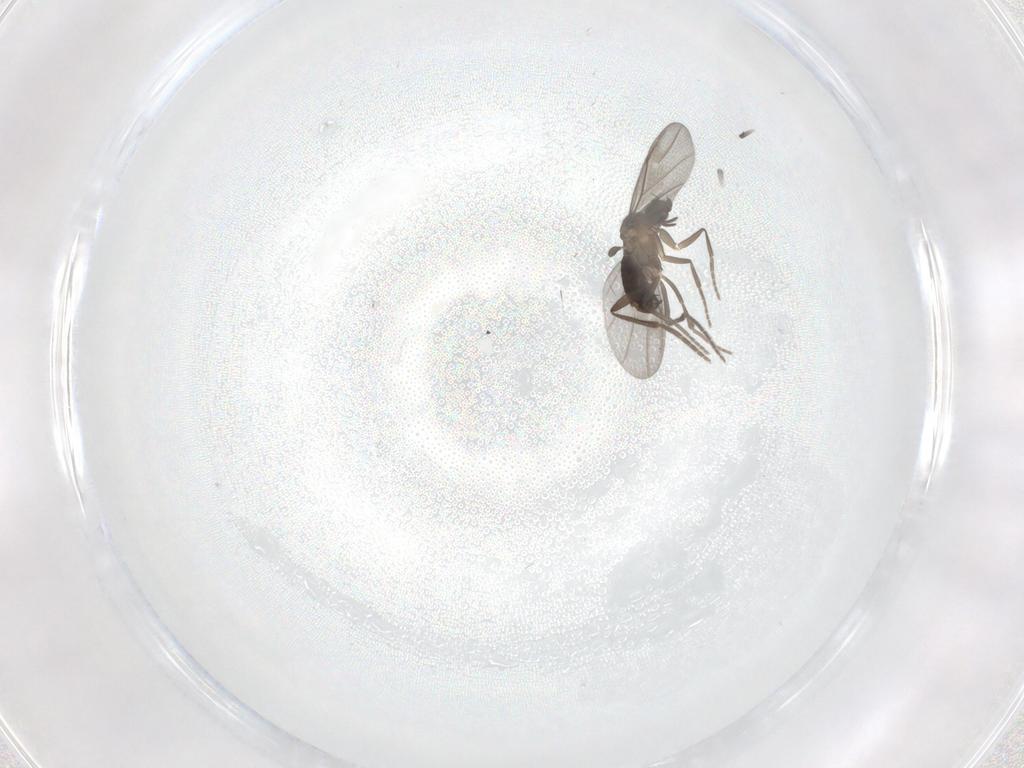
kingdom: Animalia
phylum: Arthropoda
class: Insecta
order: Diptera
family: Phoridae
